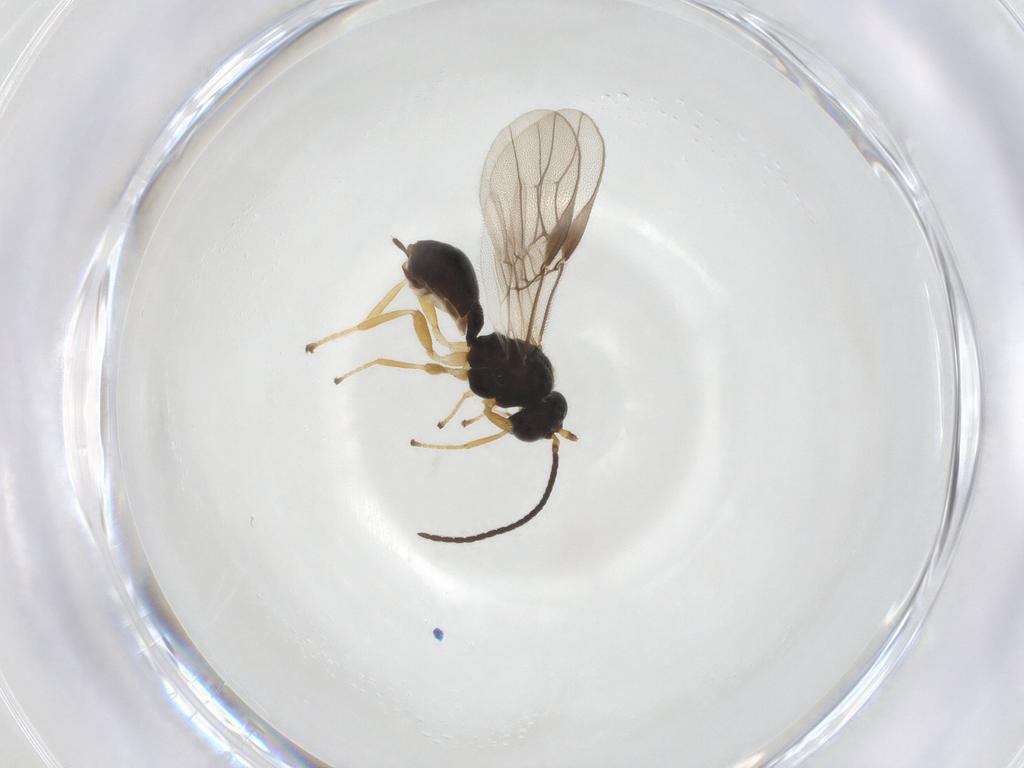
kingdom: Animalia
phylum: Arthropoda
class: Insecta
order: Hymenoptera
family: Braconidae
